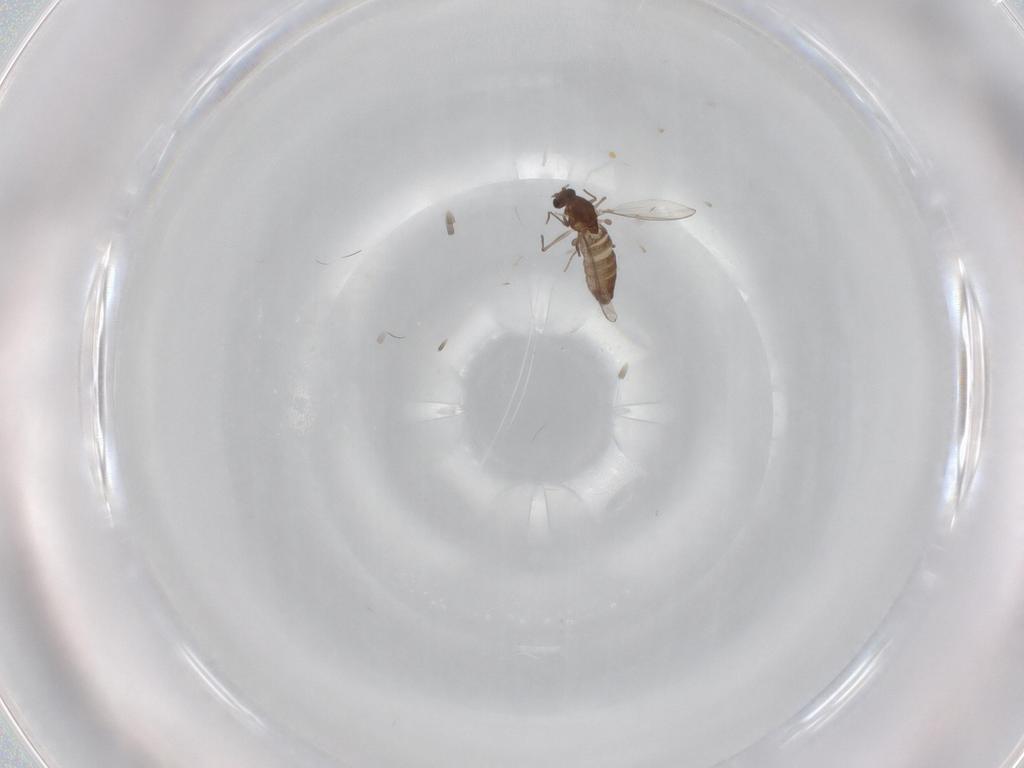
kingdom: Animalia
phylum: Arthropoda
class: Insecta
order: Diptera
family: Chironomidae
